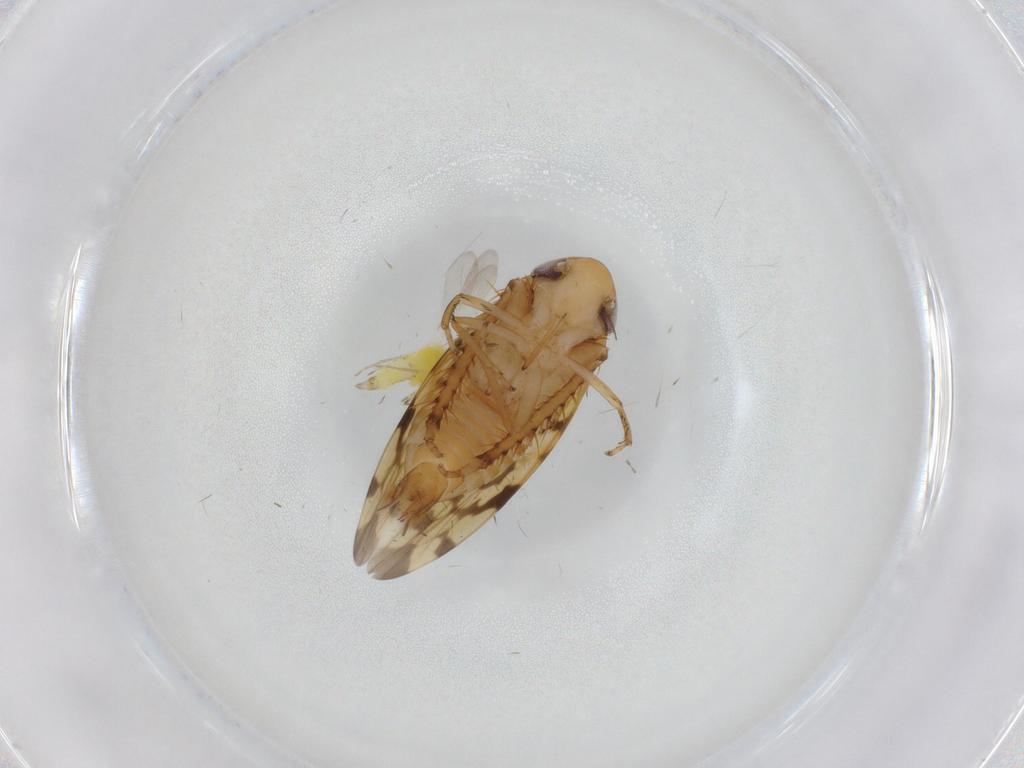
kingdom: Animalia
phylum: Arthropoda
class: Insecta
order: Hemiptera
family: Cicadellidae
